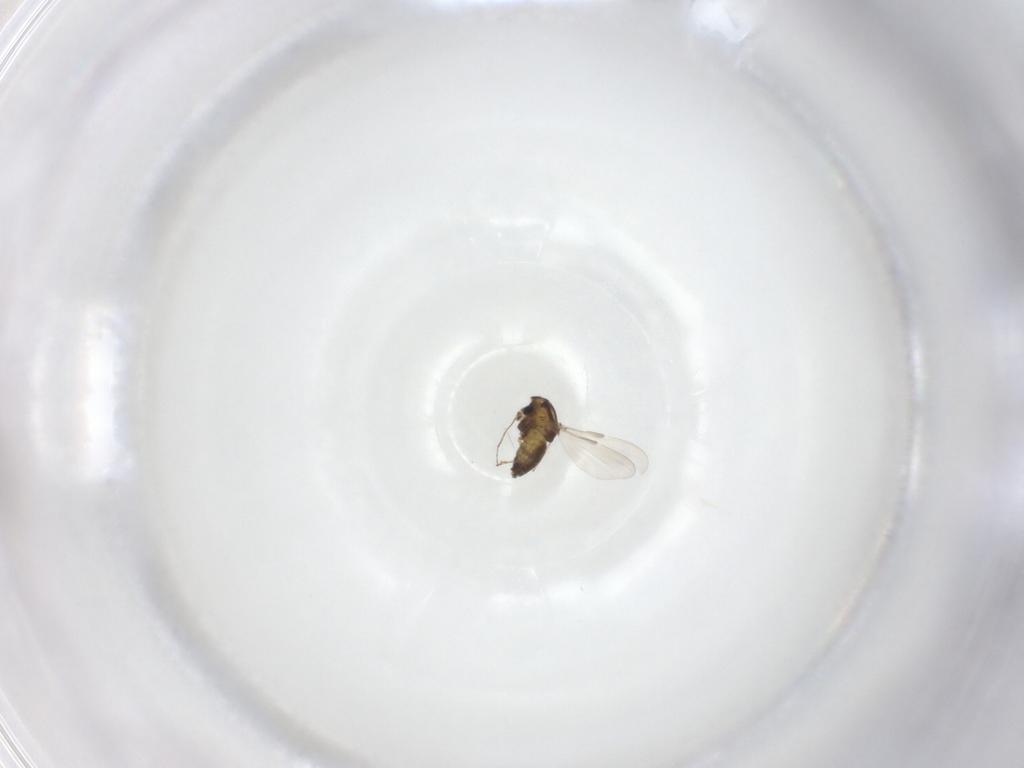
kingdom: Animalia
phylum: Arthropoda
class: Insecta
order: Diptera
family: Chironomidae
